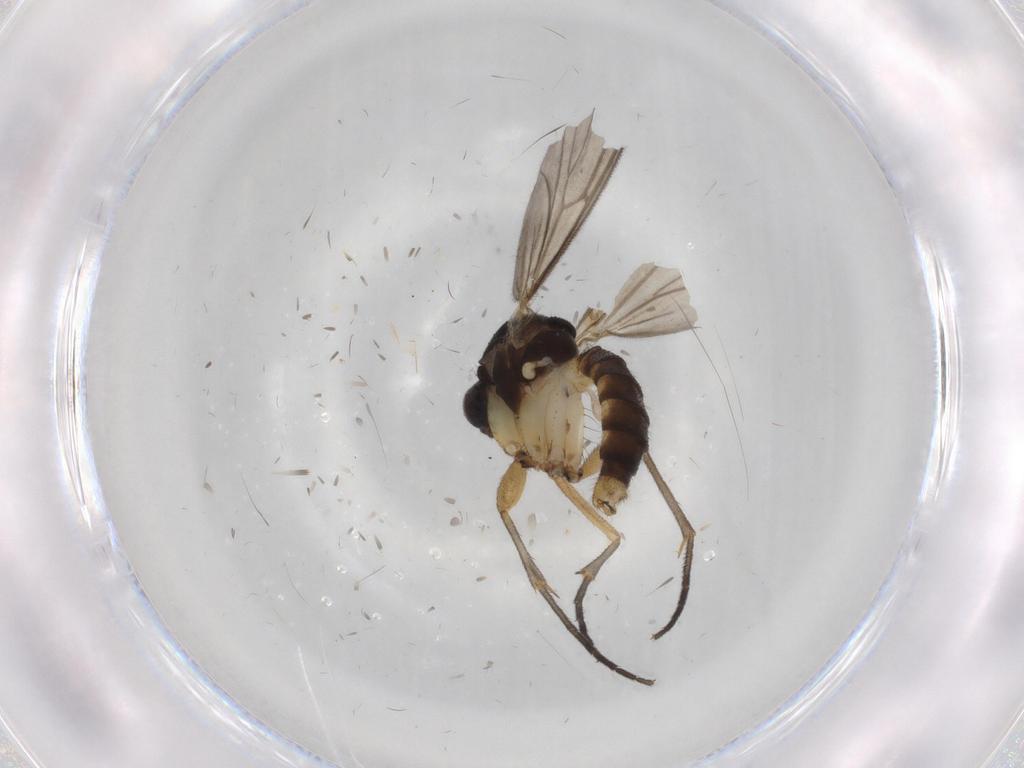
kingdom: Animalia
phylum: Arthropoda
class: Insecta
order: Diptera
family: Mycetophilidae
